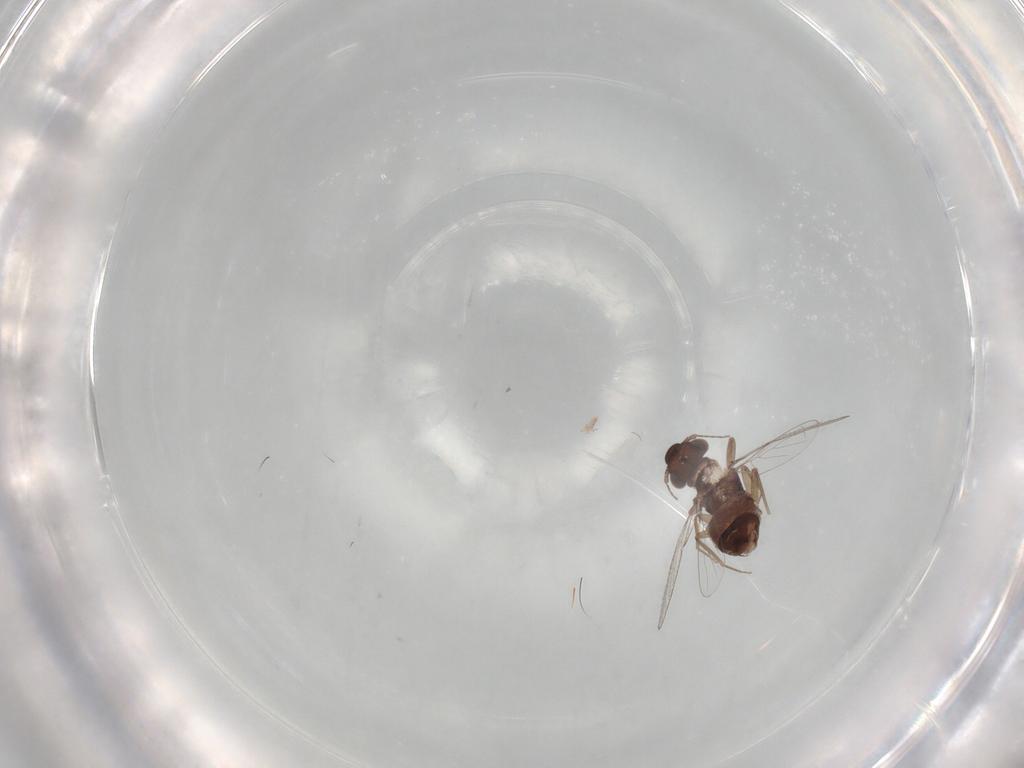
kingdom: Animalia
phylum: Arthropoda
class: Insecta
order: Psocodea
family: Psoquillidae
